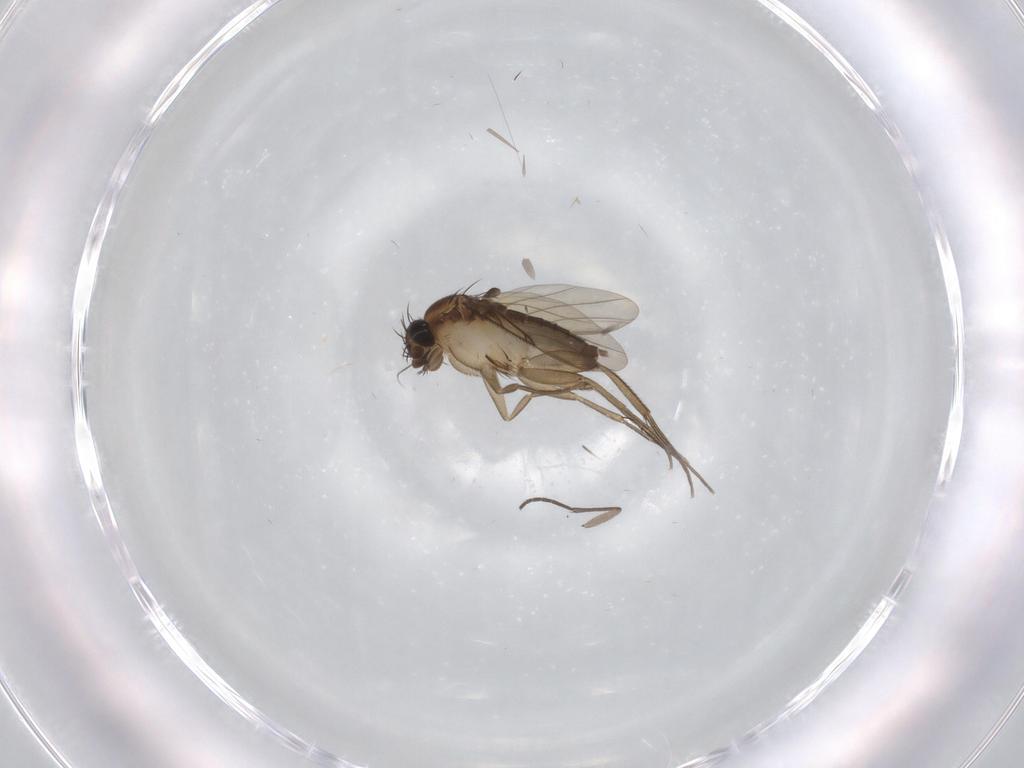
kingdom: Animalia
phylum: Arthropoda
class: Insecta
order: Diptera
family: Phoridae
